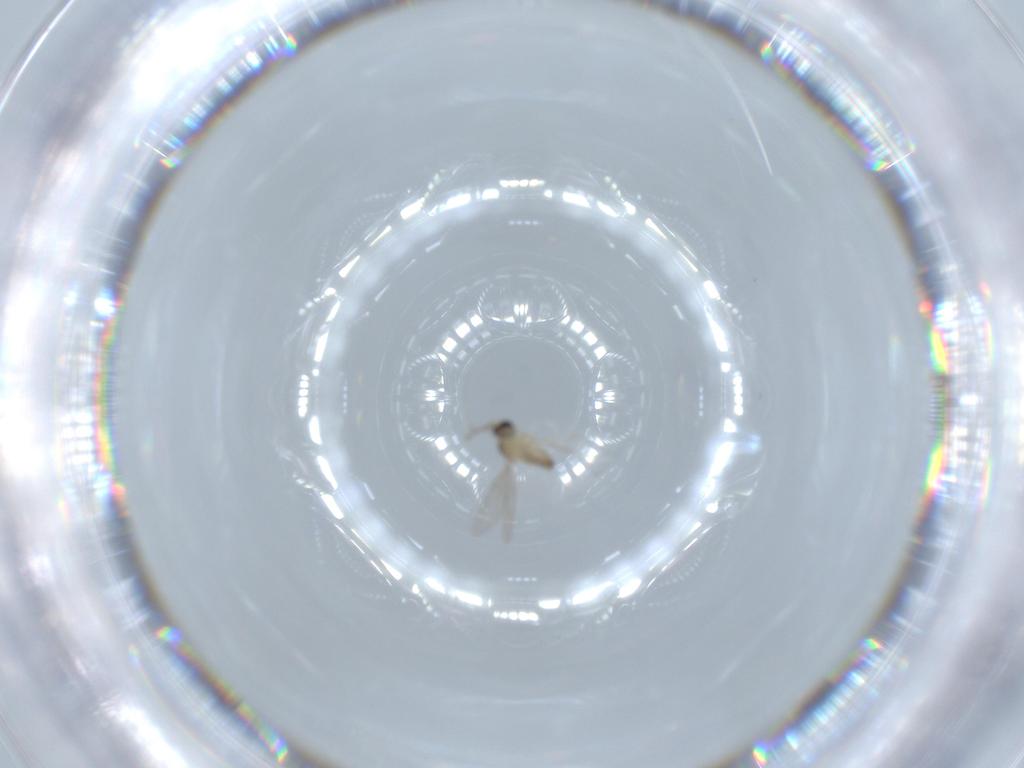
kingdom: Animalia
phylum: Arthropoda
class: Insecta
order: Diptera
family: Cecidomyiidae
